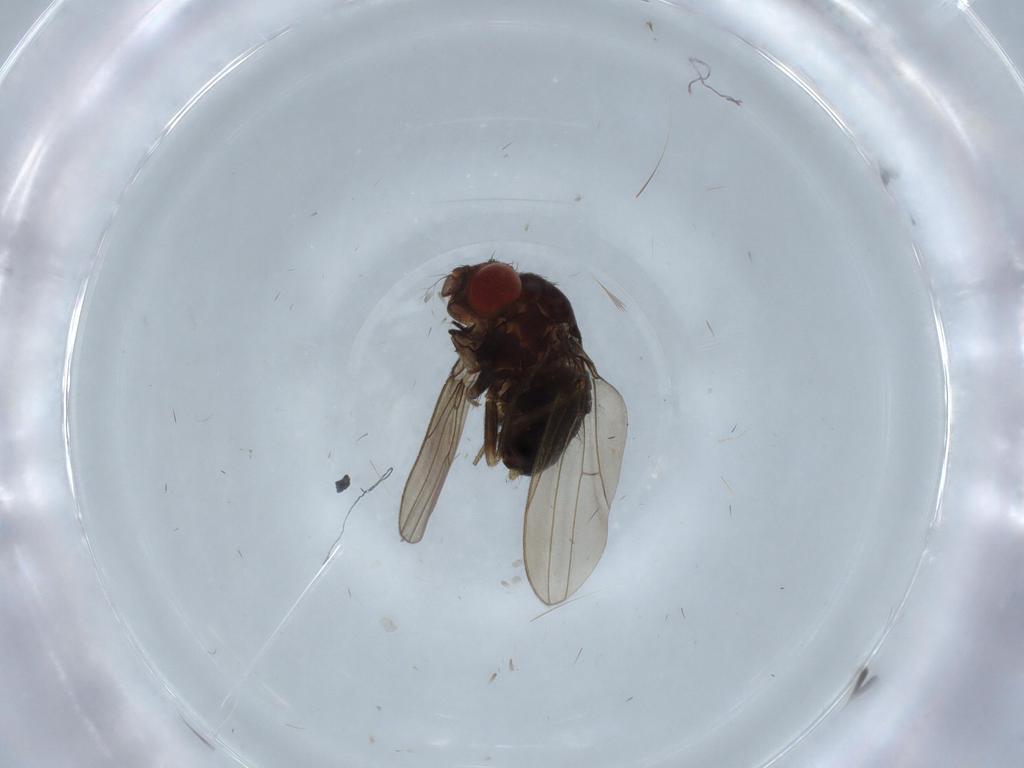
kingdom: Animalia
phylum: Arthropoda
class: Insecta
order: Diptera
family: Drosophilidae
